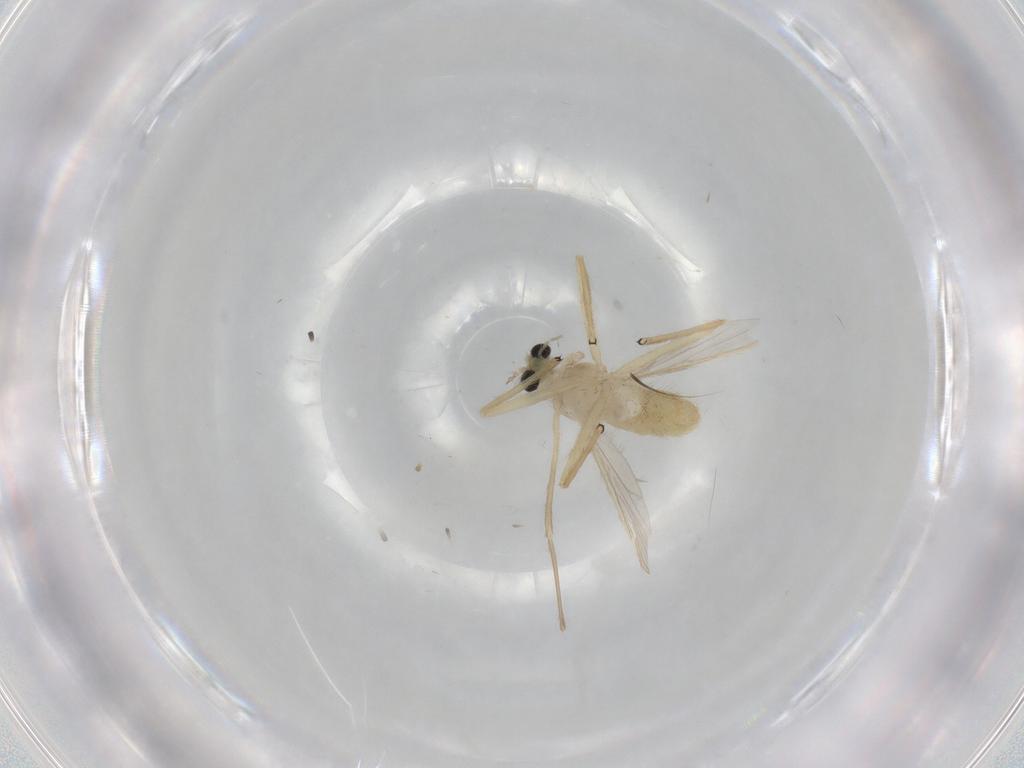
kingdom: Animalia
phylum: Arthropoda
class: Insecta
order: Diptera
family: Chironomidae
